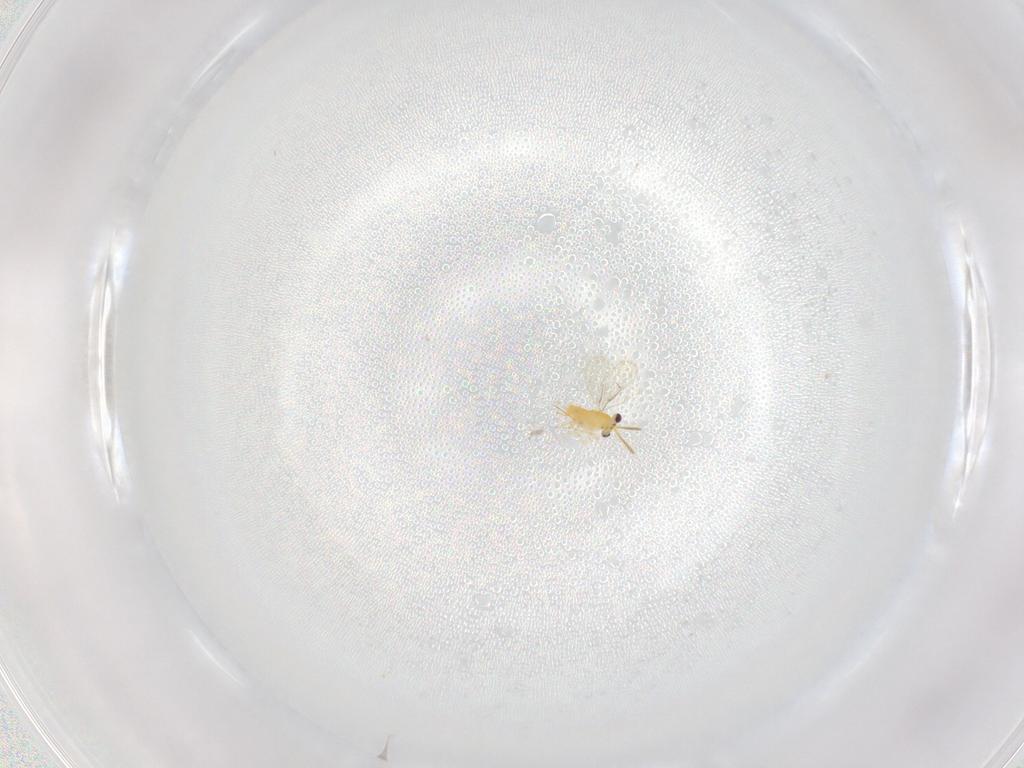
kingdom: Animalia
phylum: Arthropoda
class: Insecta
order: Hymenoptera
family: Aphelinidae
